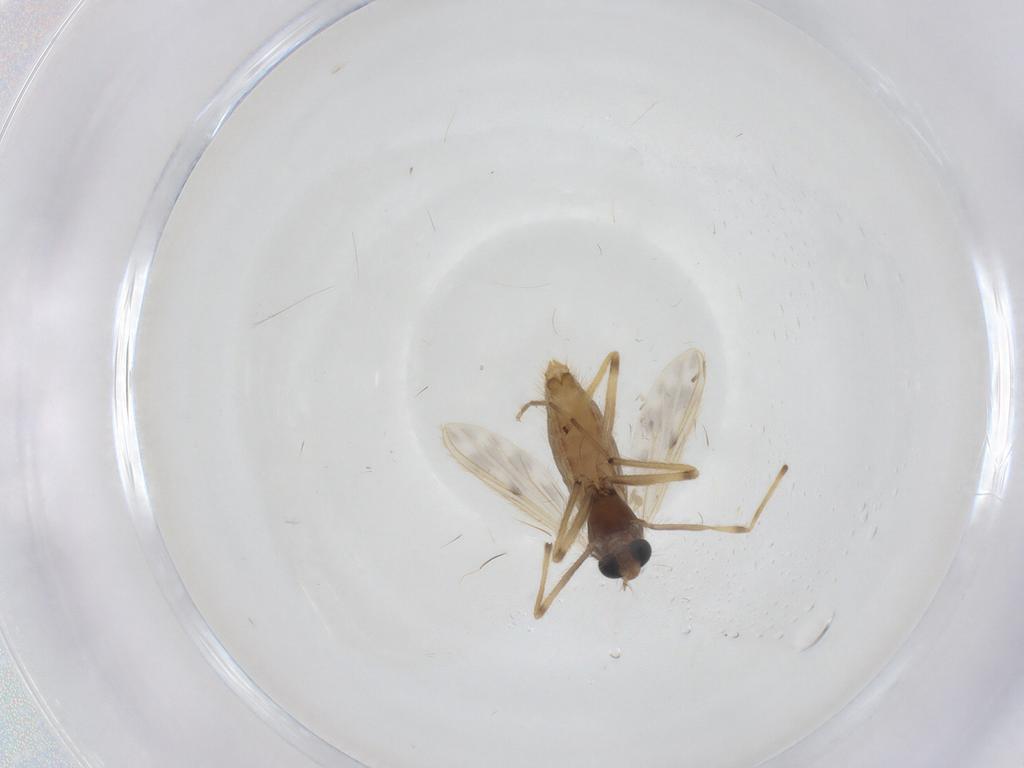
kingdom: Animalia
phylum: Arthropoda
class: Insecta
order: Diptera
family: Chironomidae
